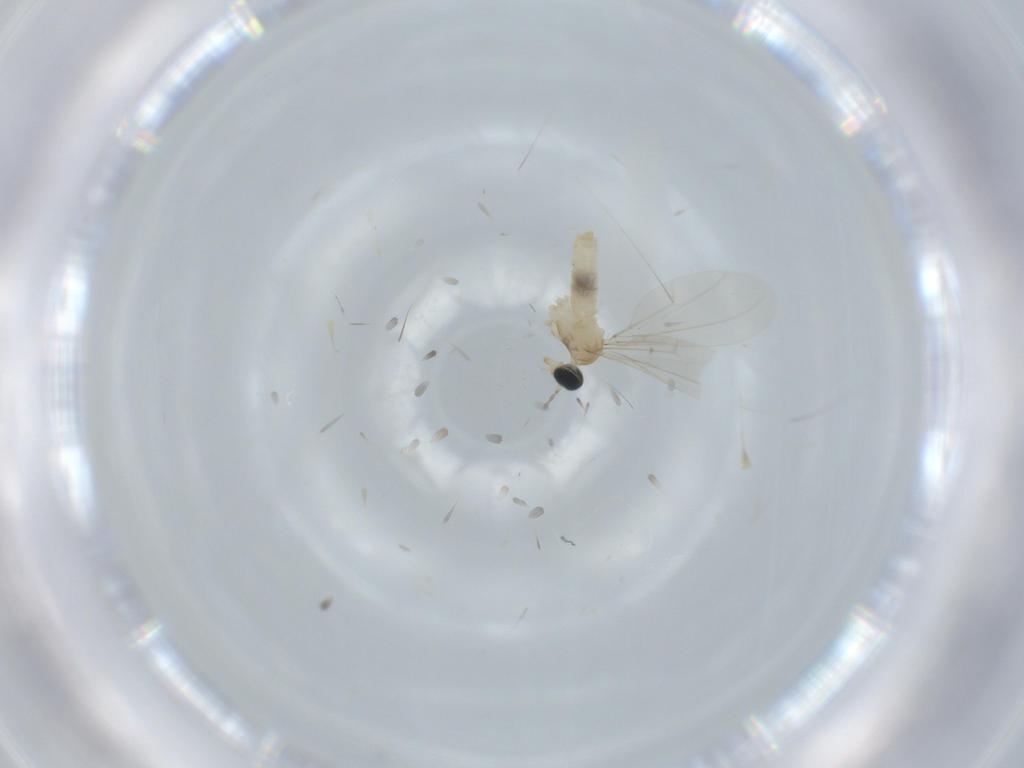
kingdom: Animalia
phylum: Arthropoda
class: Insecta
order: Diptera
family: Cecidomyiidae
